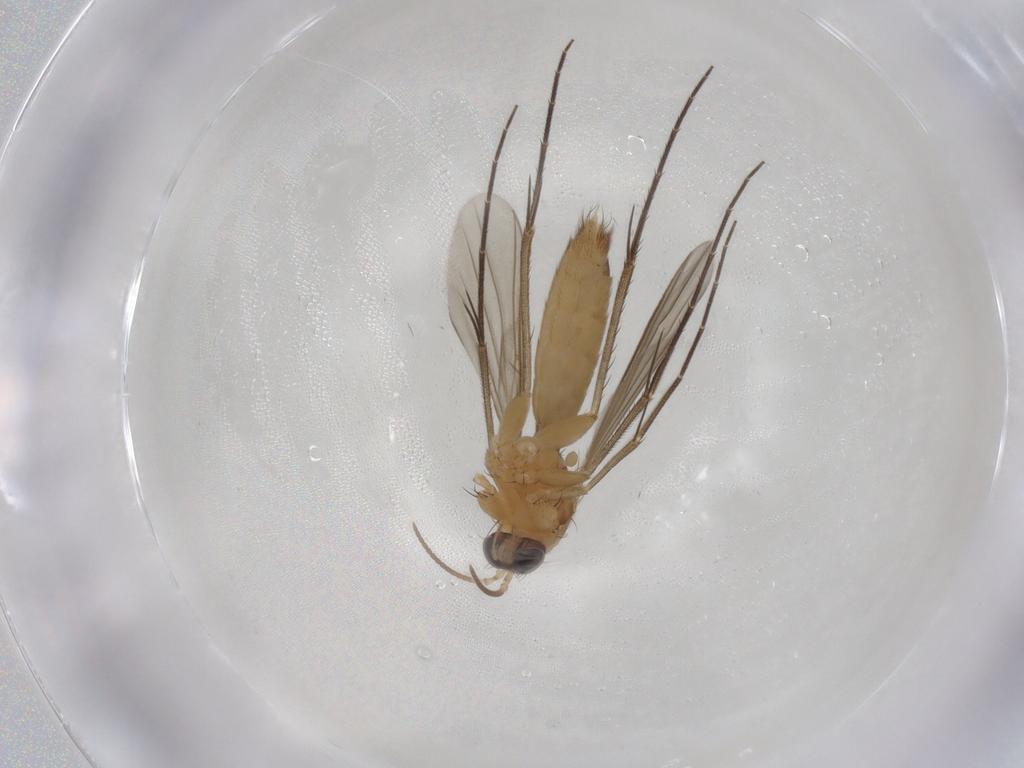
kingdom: Animalia
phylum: Arthropoda
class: Insecta
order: Diptera
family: Mycetophilidae
